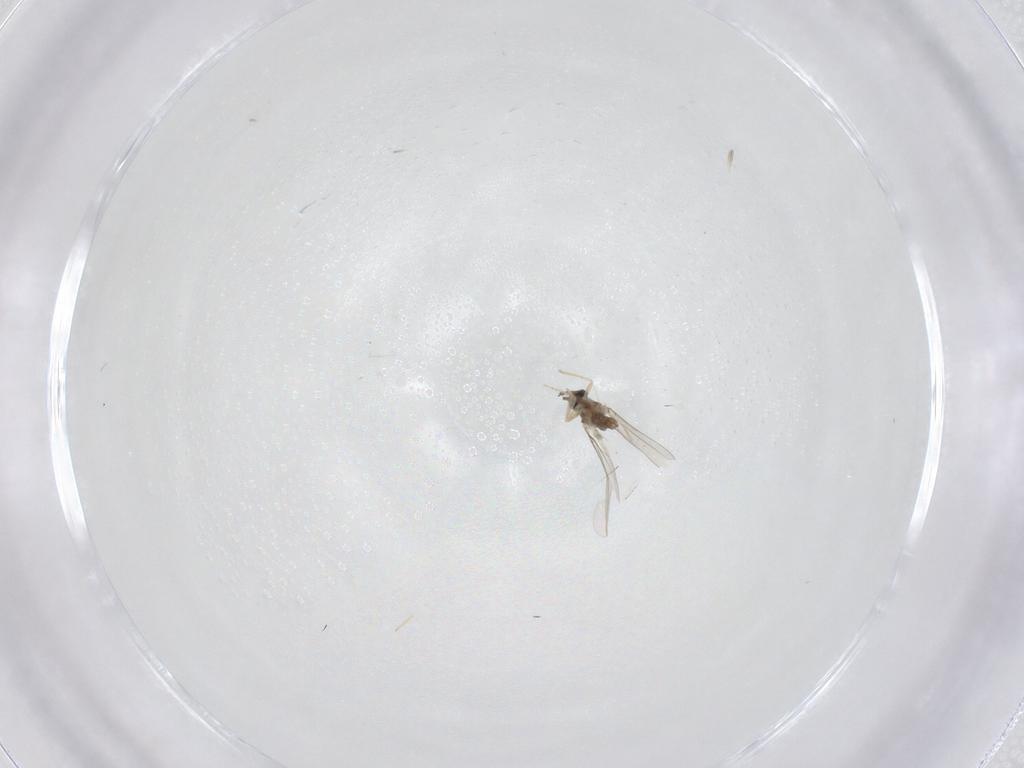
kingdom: Animalia
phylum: Arthropoda
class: Insecta
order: Diptera
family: Cecidomyiidae
